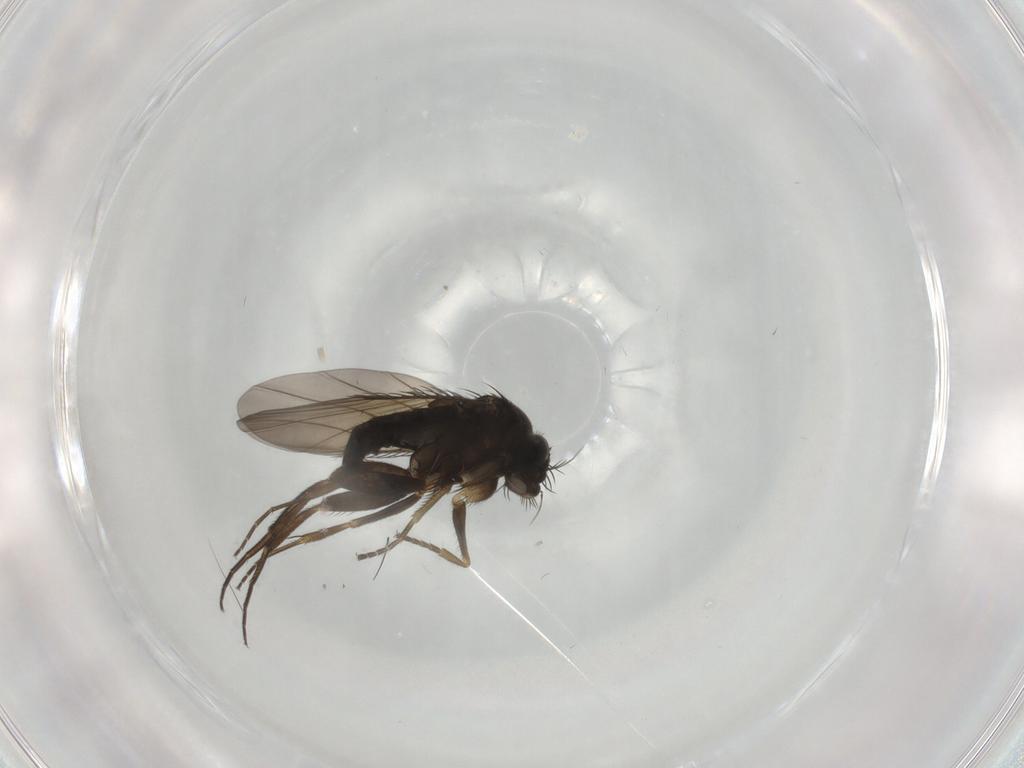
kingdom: Animalia
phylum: Arthropoda
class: Insecta
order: Diptera
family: Phoridae
